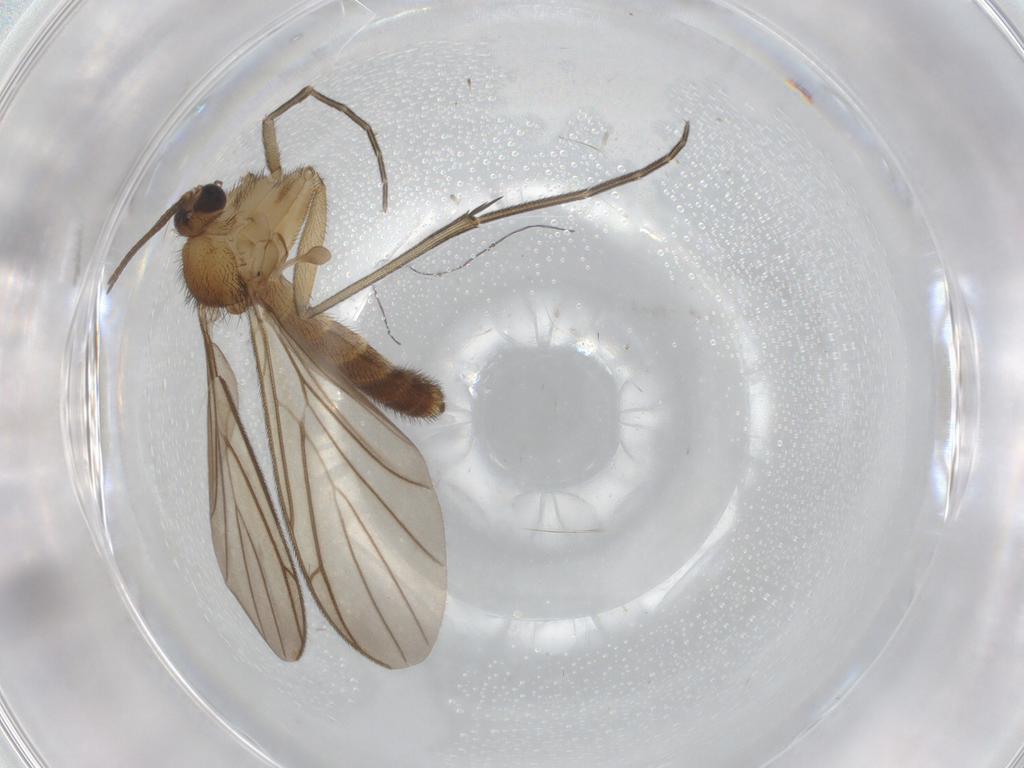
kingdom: Animalia
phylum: Arthropoda
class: Insecta
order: Diptera
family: Keroplatidae
